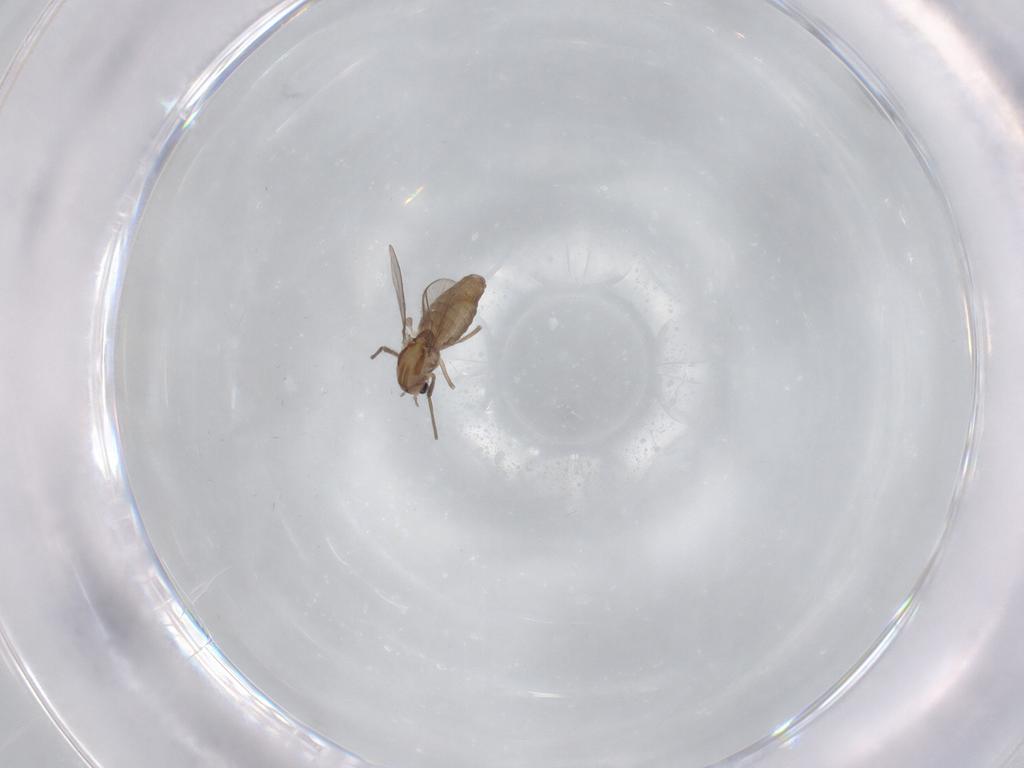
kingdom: Animalia
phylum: Arthropoda
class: Insecta
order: Diptera
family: Chironomidae
